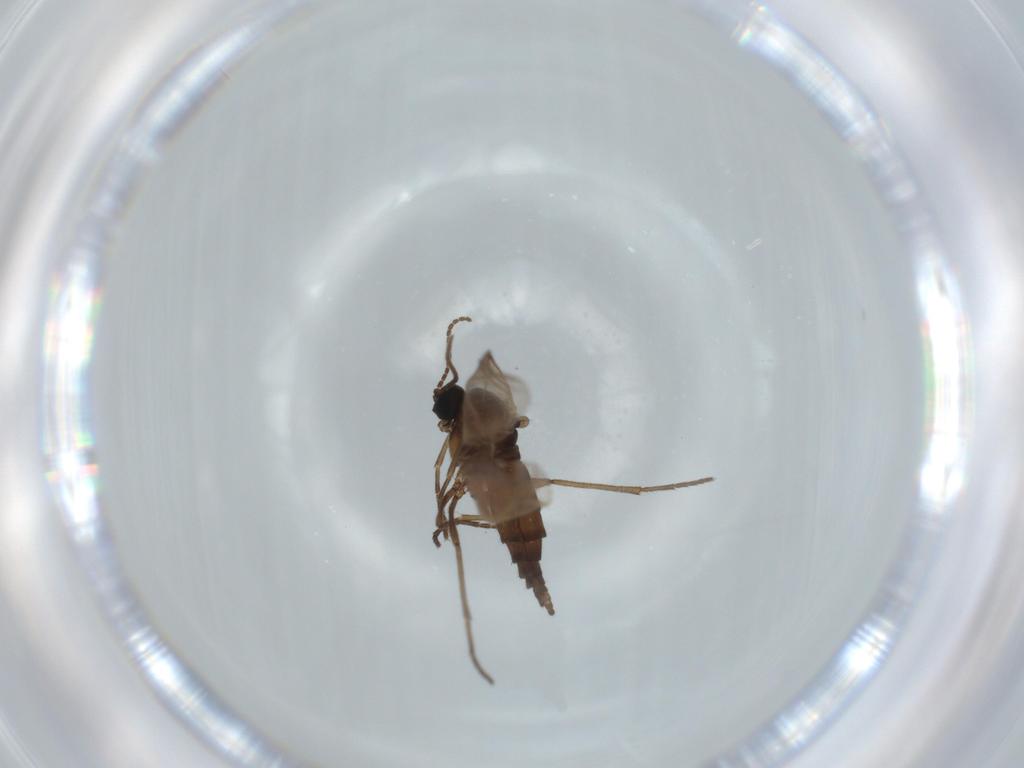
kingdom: Animalia
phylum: Arthropoda
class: Insecta
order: Diptera
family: Sciaridae
